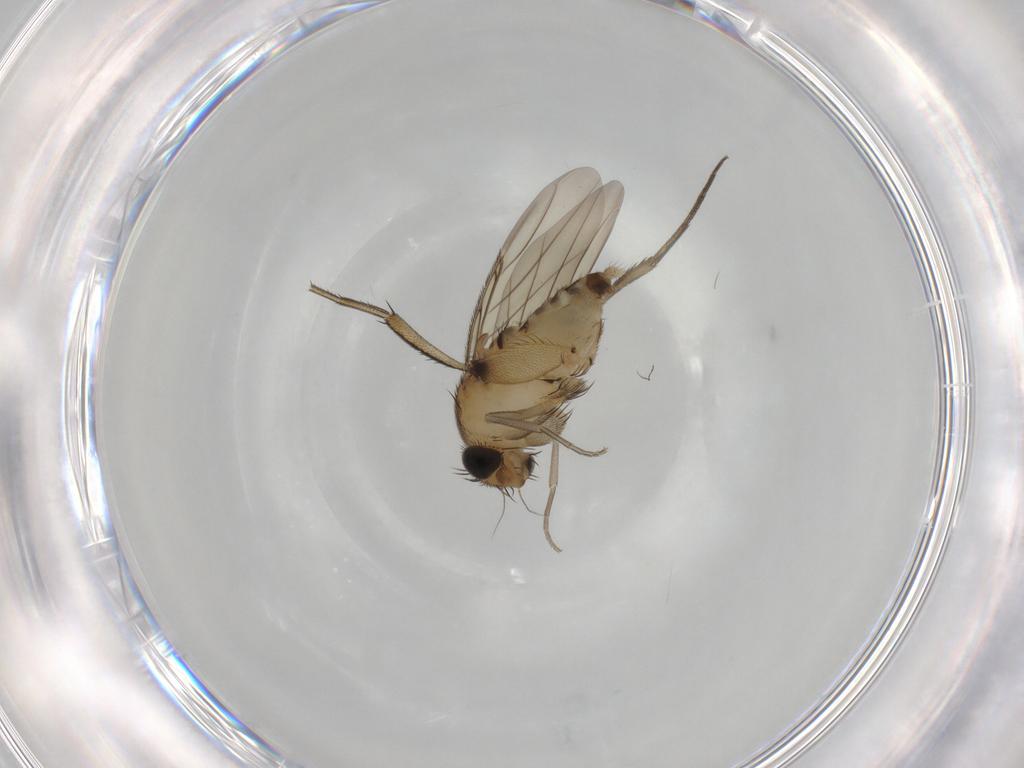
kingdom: Animalia
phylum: Arthropoda
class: Insecta
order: Diptera
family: Phoridae
